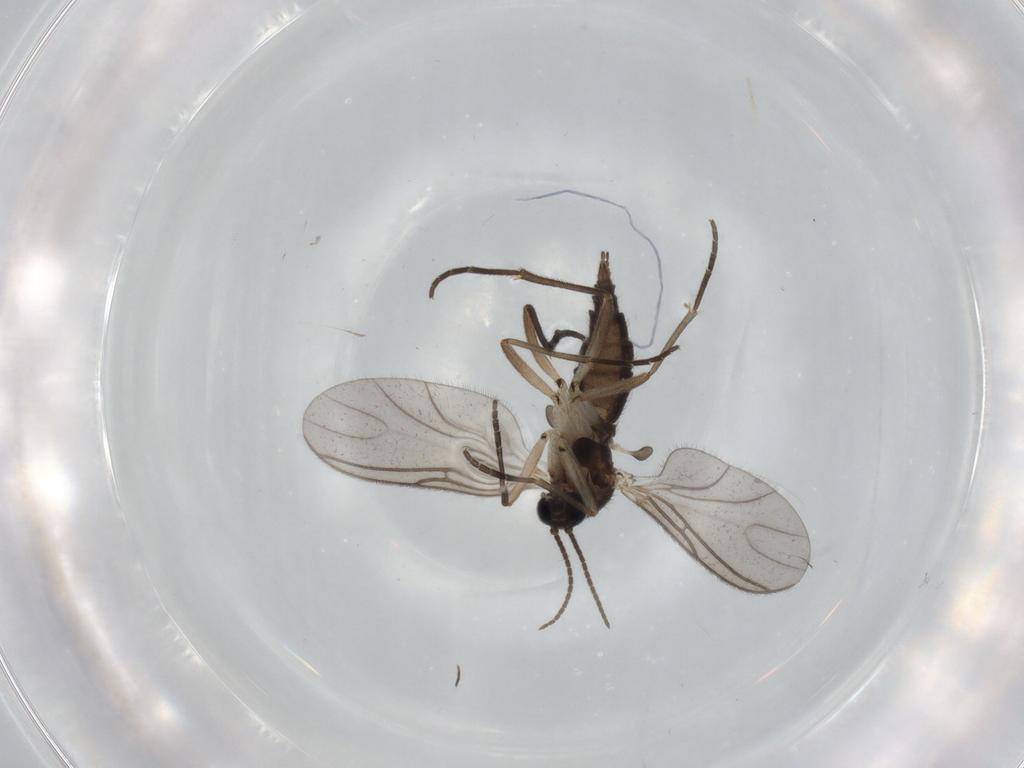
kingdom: Animalia
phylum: Arthropoda
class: Insecta
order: Diptera
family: Sciaridae
